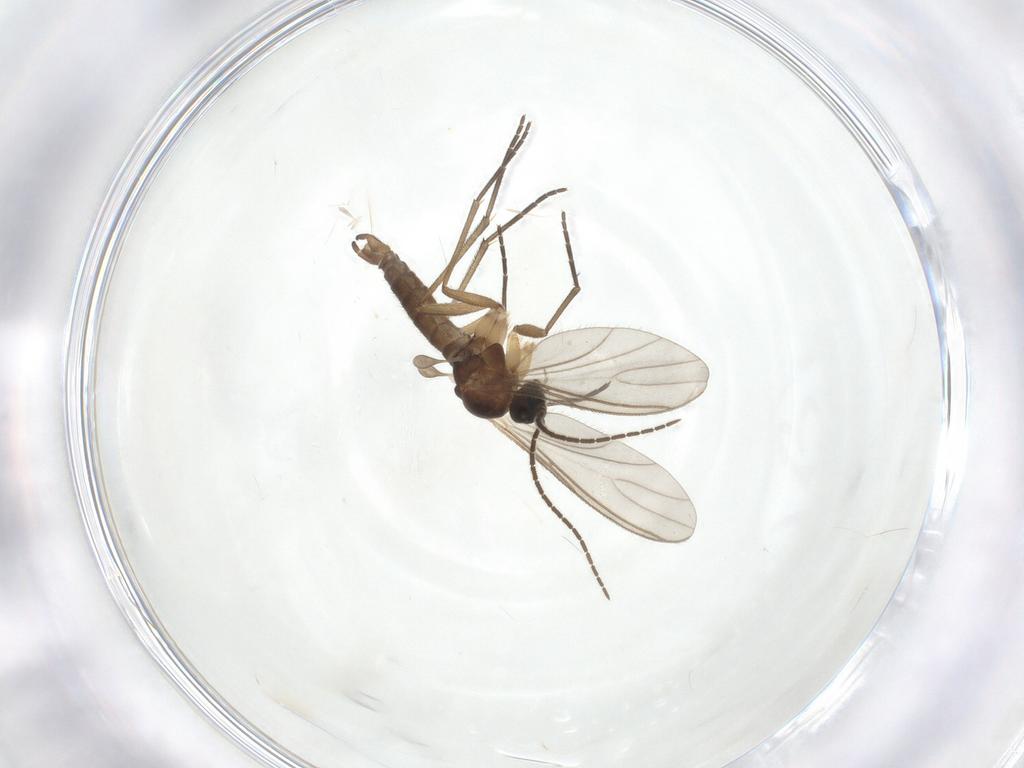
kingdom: Animalia
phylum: Arthropoda
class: Insecta
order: Diptera
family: Sciaridae
